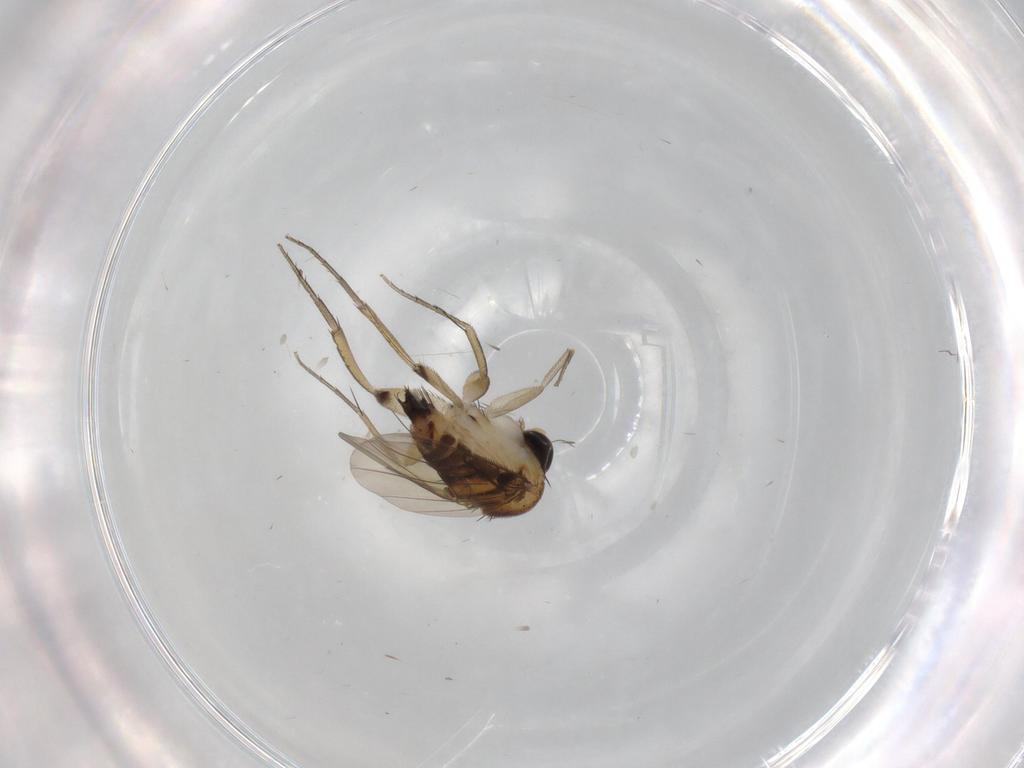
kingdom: Animalia
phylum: Arthropoda
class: Insecta
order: Diptera
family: Phoridae
